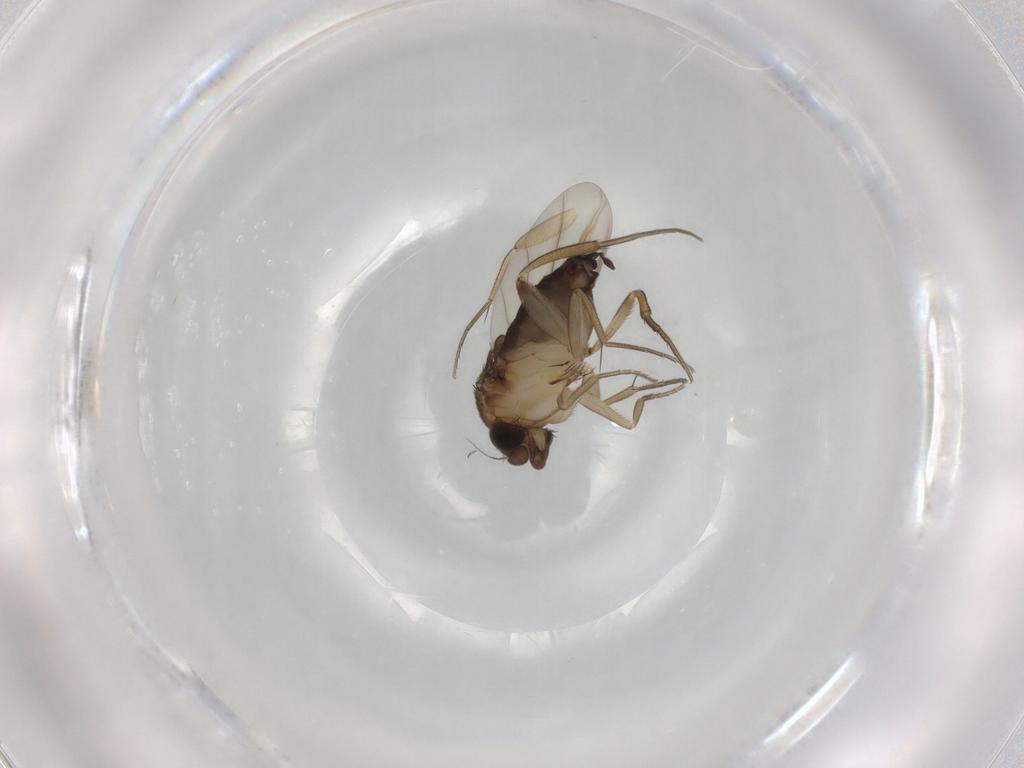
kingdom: Animalia
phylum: Arthropoda
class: Insecta
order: Diptera
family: Phoridae
